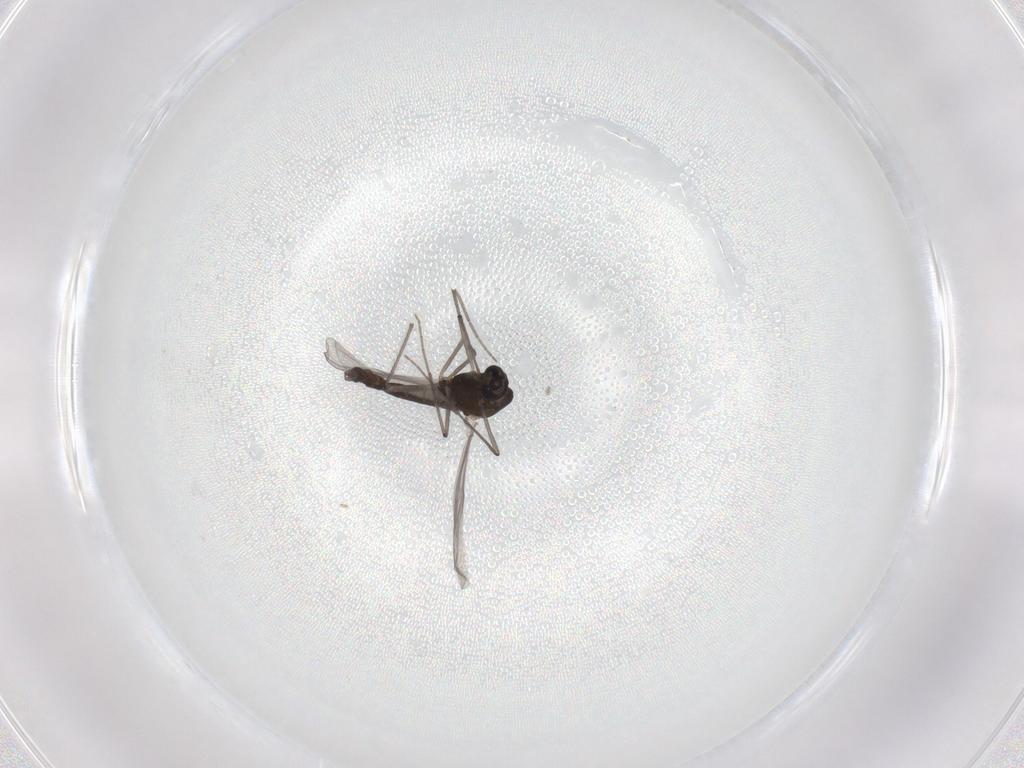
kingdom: Animalia
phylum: Arthropoda
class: Insecta
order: Diptera
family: Chironomidae
